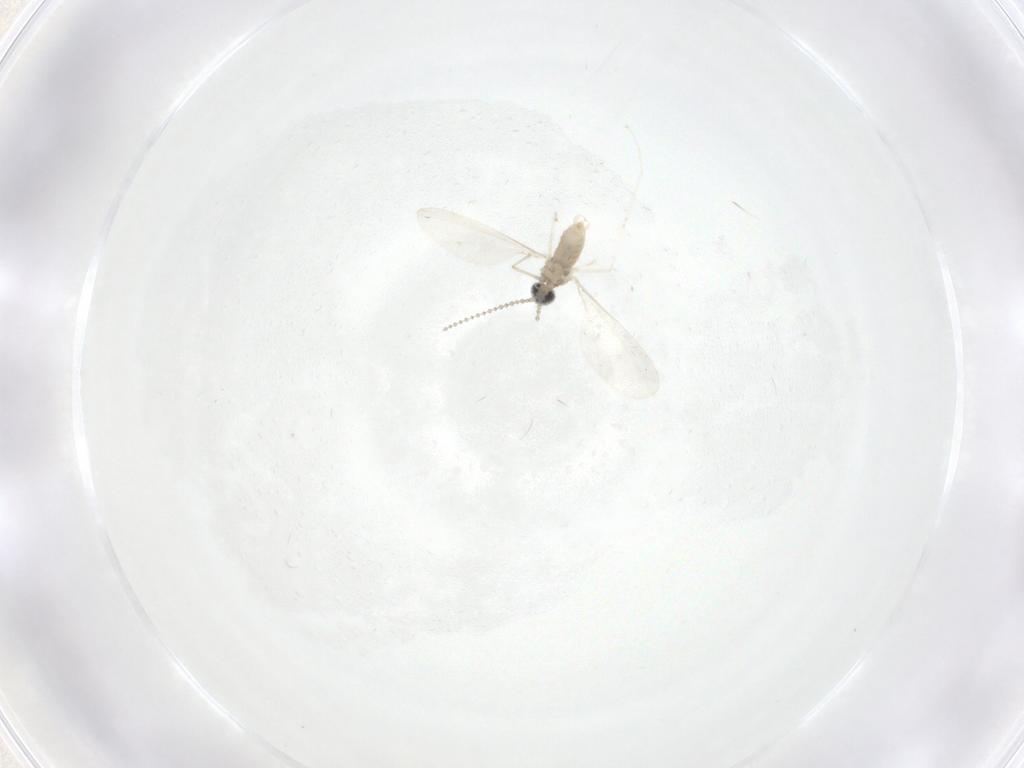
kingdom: Animalia
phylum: Arthropoda
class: Insecta
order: Diptera
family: Cecidomyiidae
